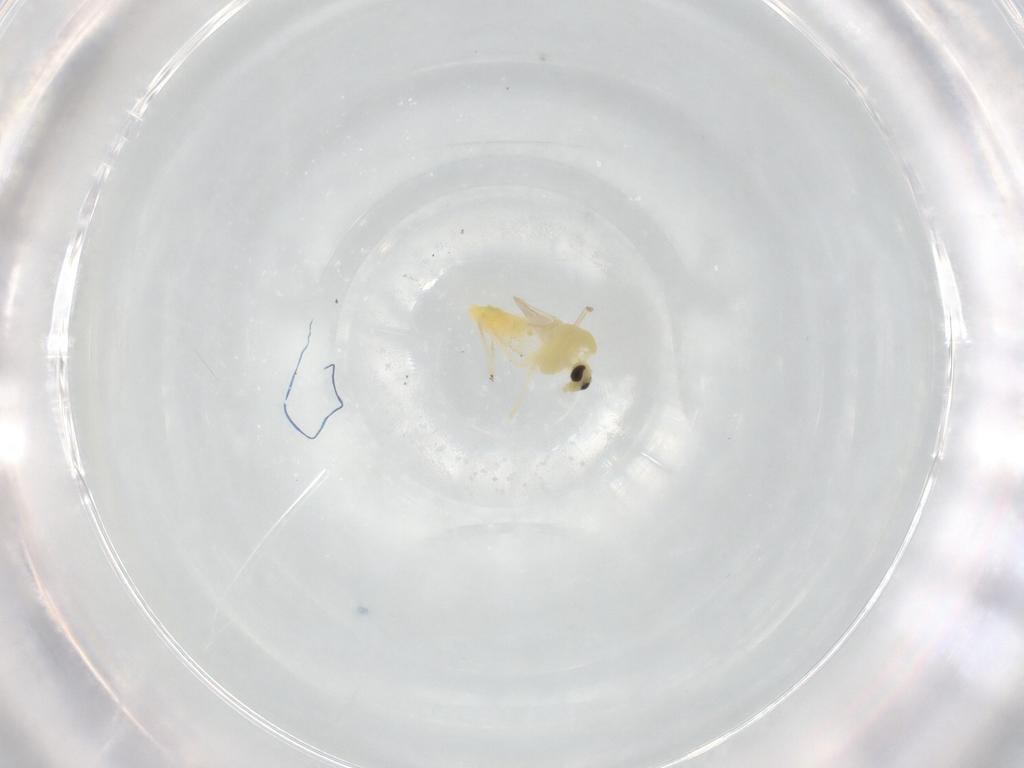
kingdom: Animalia
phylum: Arthropoda
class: Insecta
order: Diptera
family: Chironomidae
